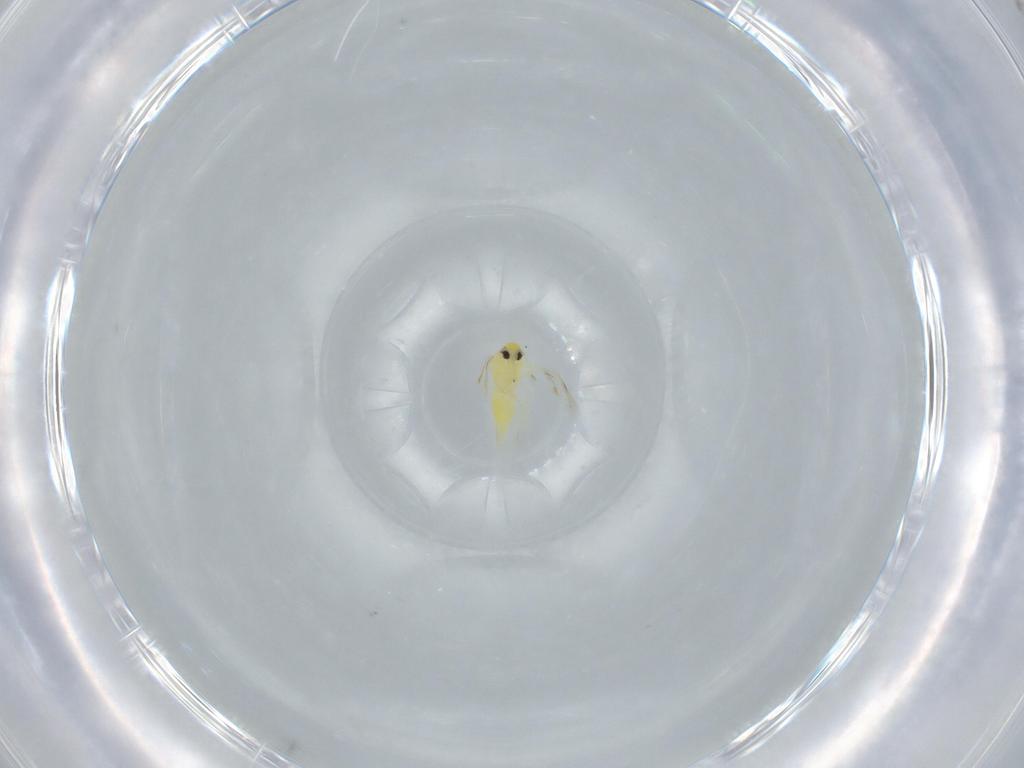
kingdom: Animalia
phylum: Arthropoda
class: Insecta
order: Hemiptera
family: Aleyrodidae
